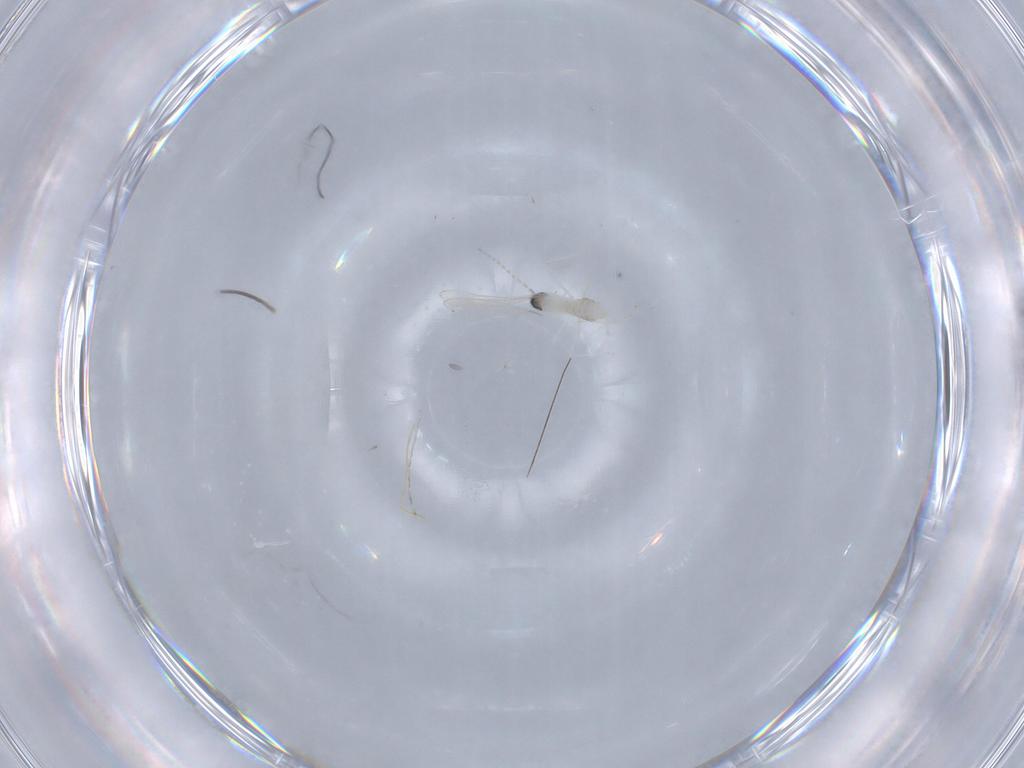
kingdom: Animalia
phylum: Arthropoda
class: Insecta
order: Diptera
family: Cecidomyiidae
